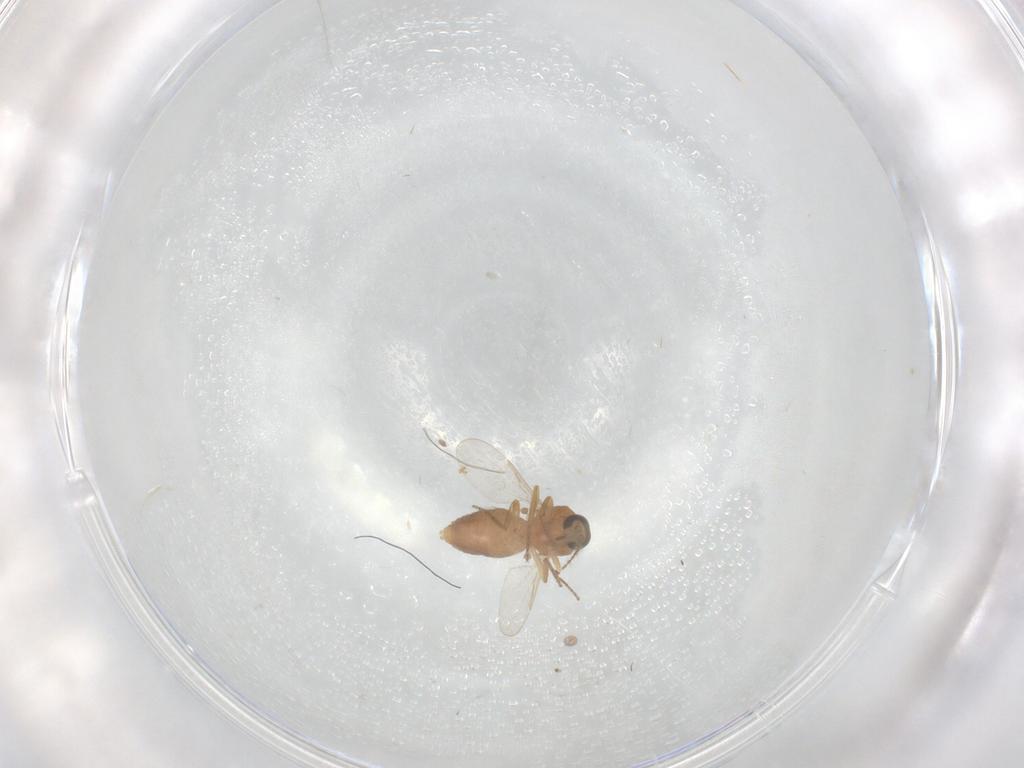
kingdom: Animalia
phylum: Arthropoda
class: Insecta
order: Diptera
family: Ceratopogonidae
